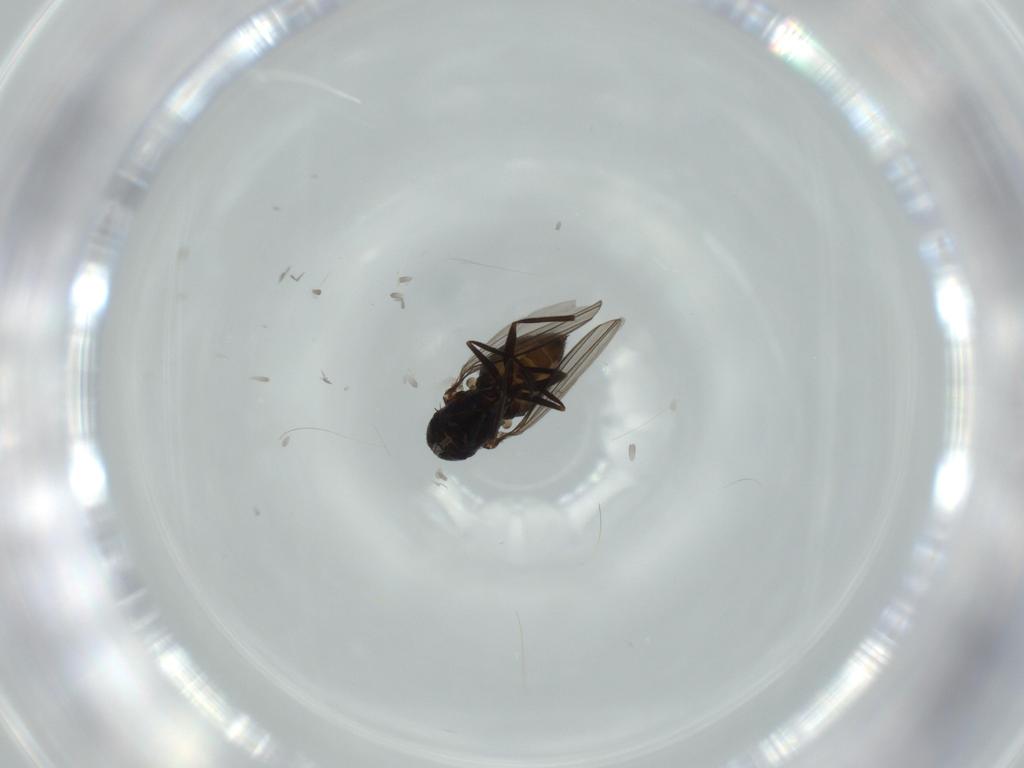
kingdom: Animalia
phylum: Arthropoda
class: Insecta
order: Diptera
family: Dolichopodidae
